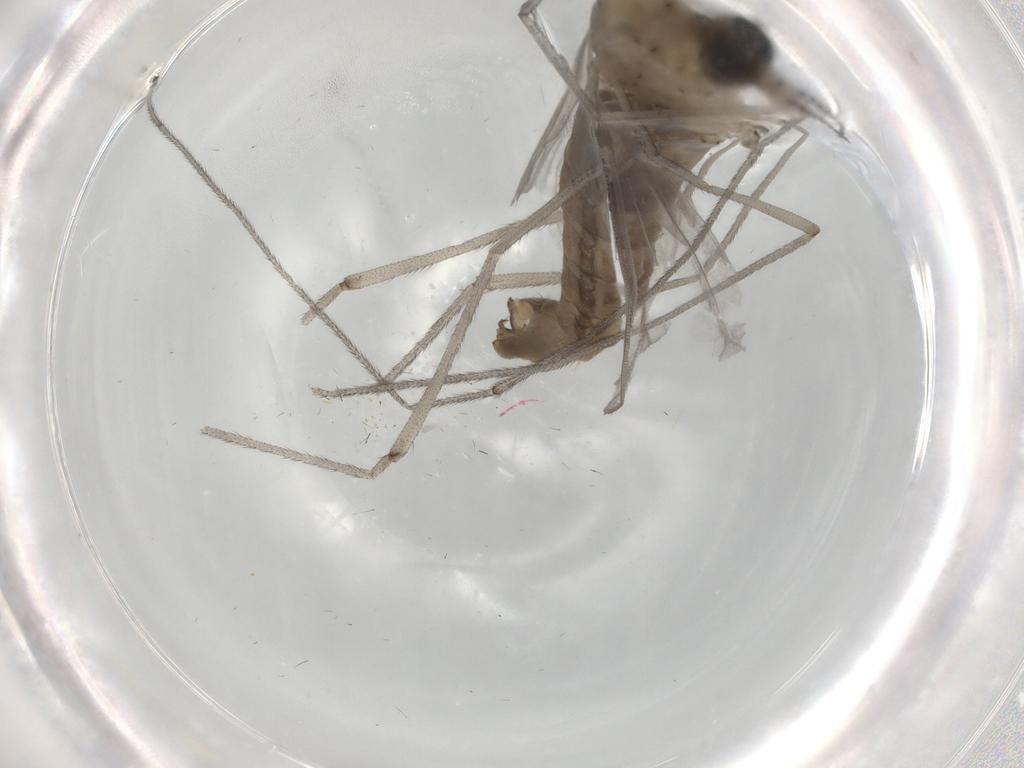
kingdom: Animalia
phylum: Arthropoda
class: Insecta
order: Diptera
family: Limoniidae
